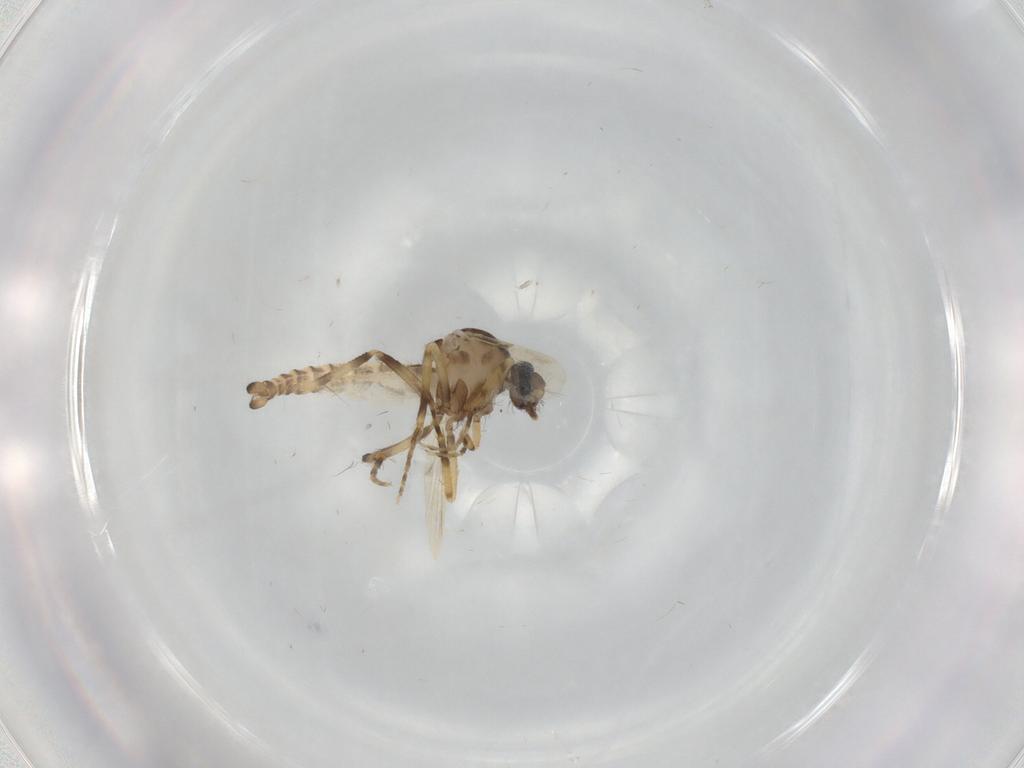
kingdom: Animalia
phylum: Arthropoda
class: Insecta
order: Diptera
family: Ceratopogonidae
